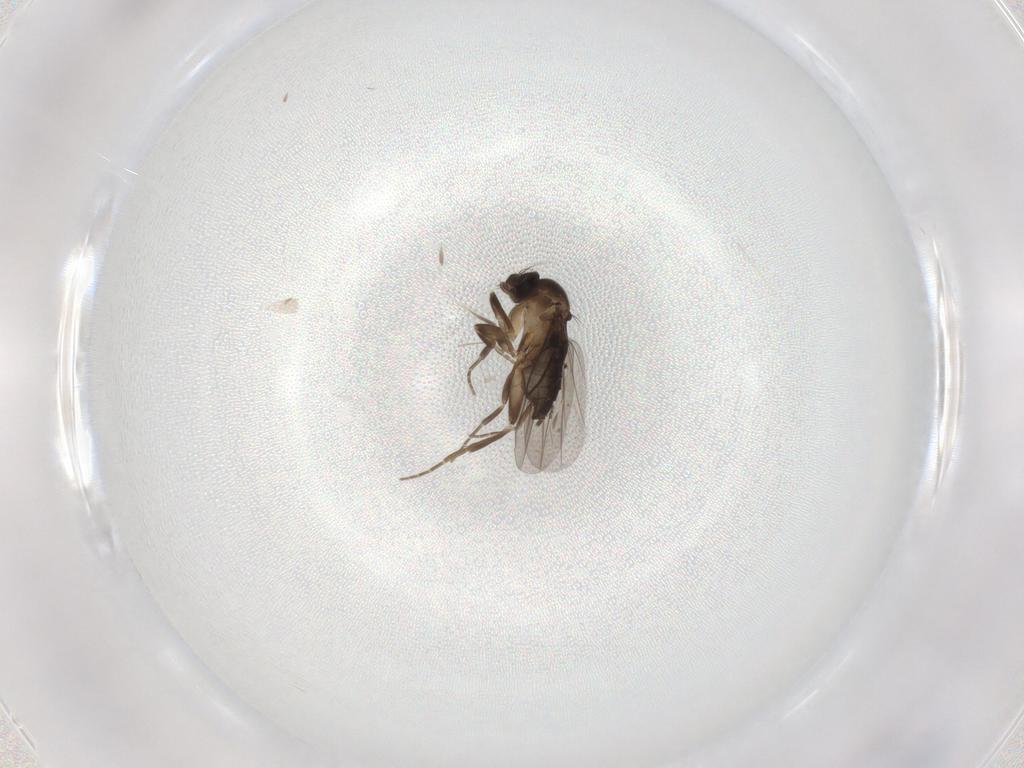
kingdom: Animalia
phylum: Arthropoda
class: Insecta
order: Diptera
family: Phoridae
